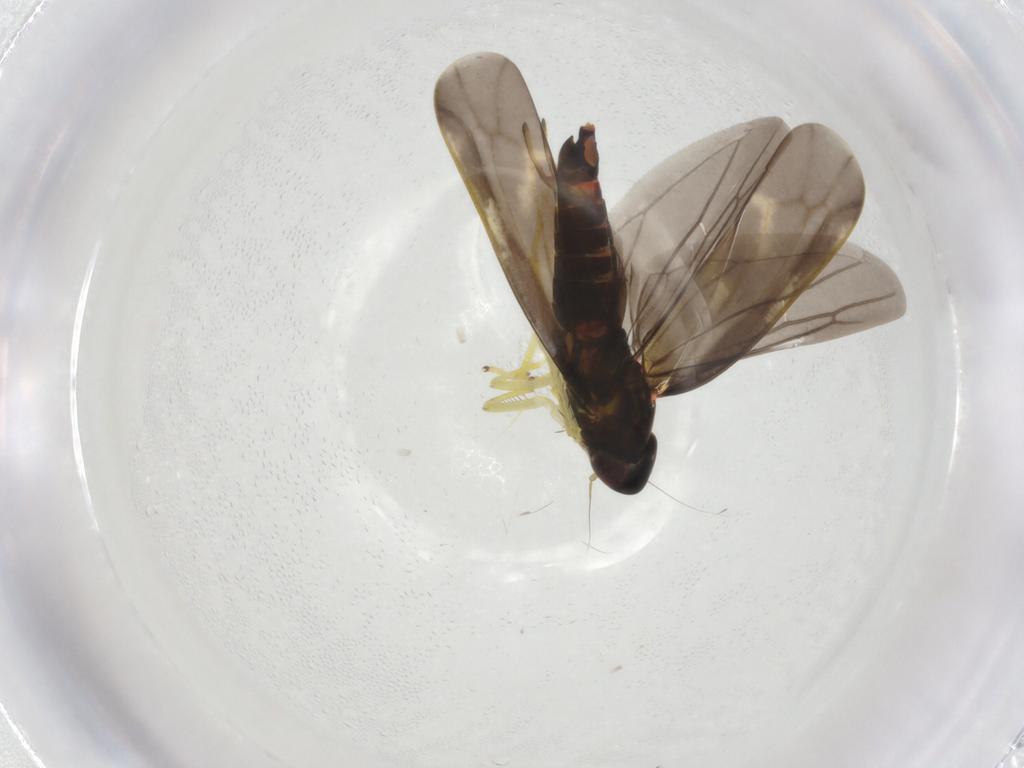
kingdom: Animalia
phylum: Arthropoda
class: Insecta
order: Hemiptera
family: Cicadellidae
